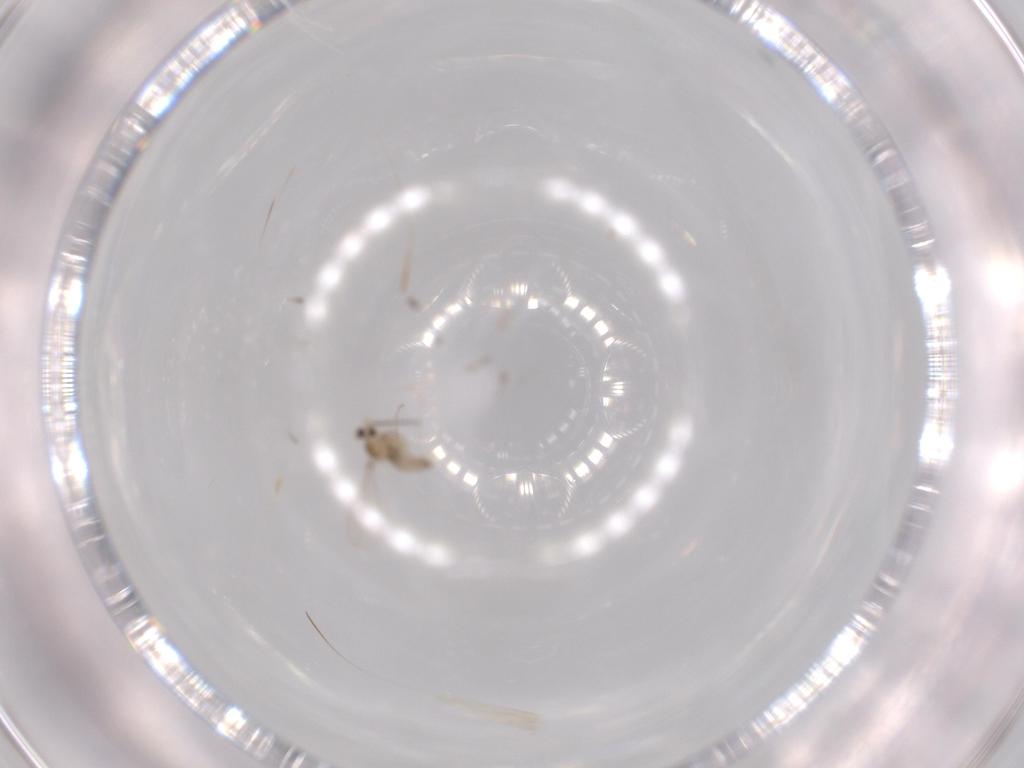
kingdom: Animalia
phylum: Arthropoda
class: Insecta
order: Diptera
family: Cecidomyiidae
